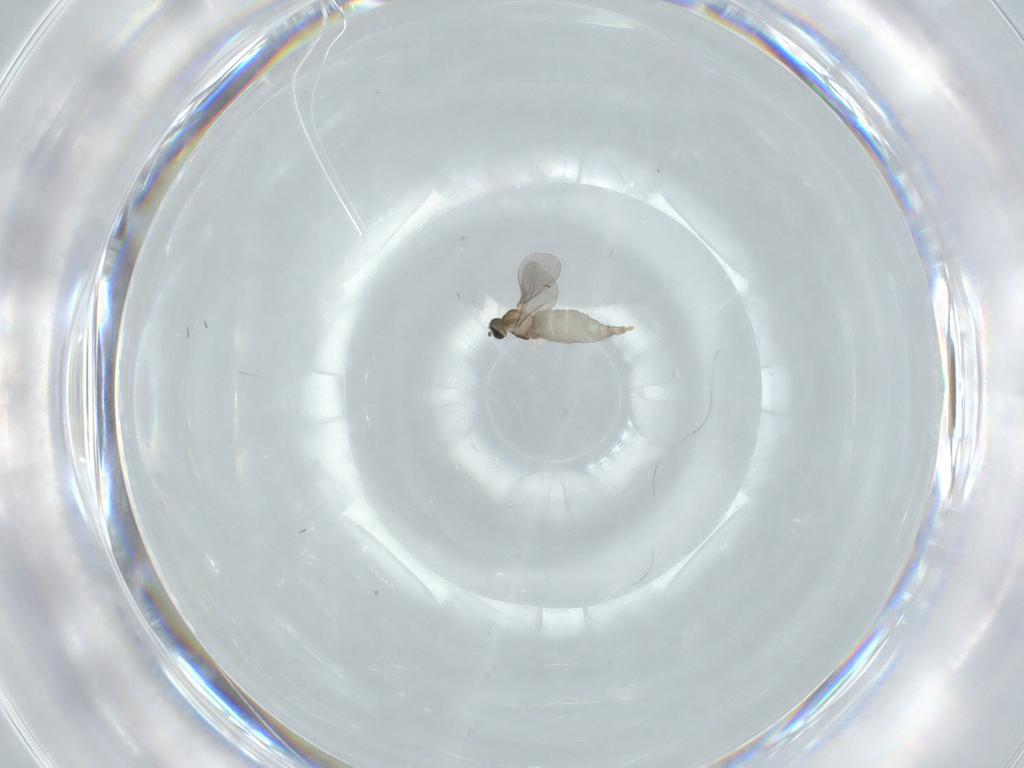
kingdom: Animalia
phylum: Arthropoda
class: Insecta
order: Diptera
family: Cecidomyiidae
